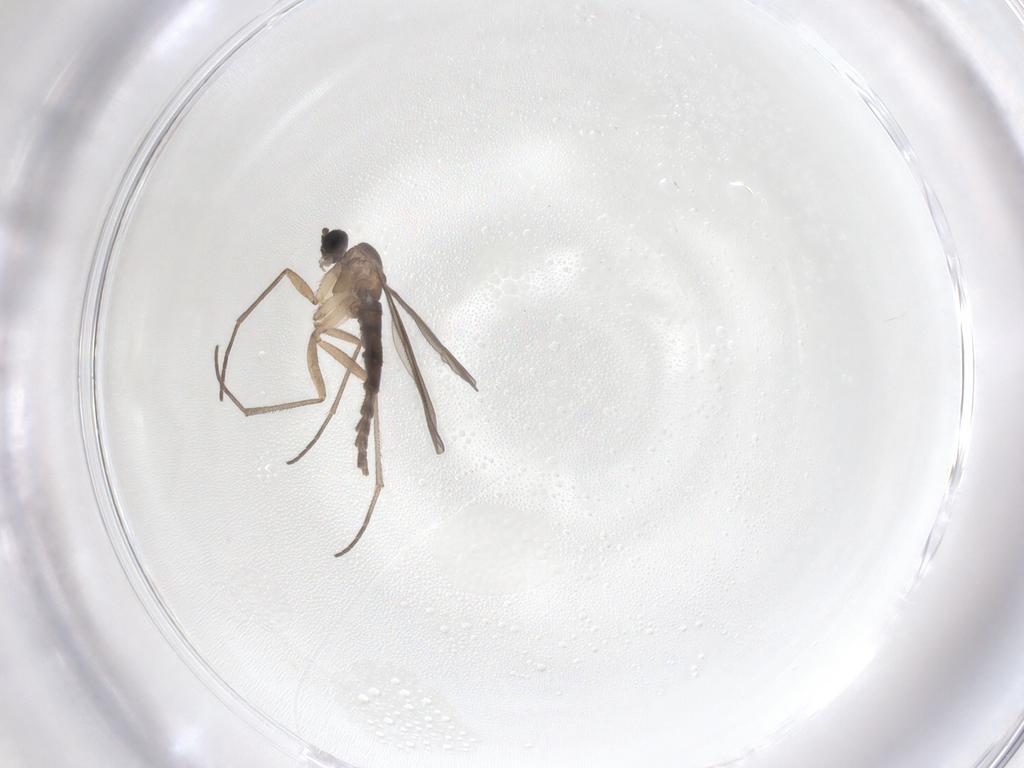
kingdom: Animalia
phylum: Arthropoda
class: Insecta
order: Diptera
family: Sciaridae
